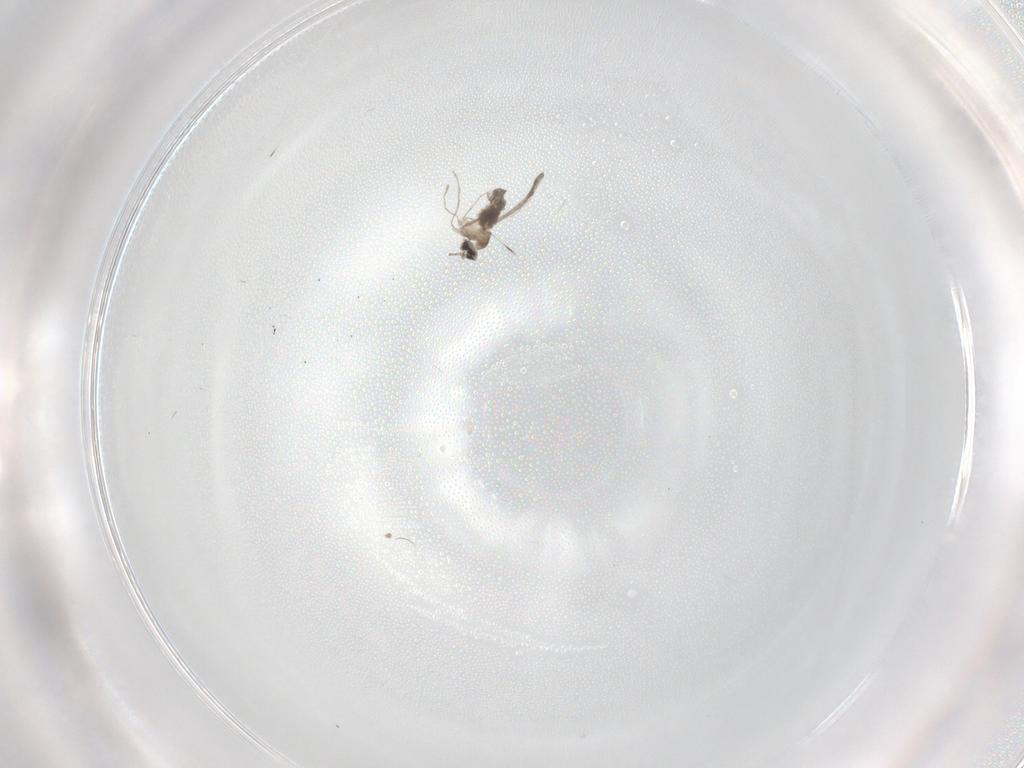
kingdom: Animalia
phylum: Arthropoda
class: Insecta
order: Diptera
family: Cecidomyiidae
